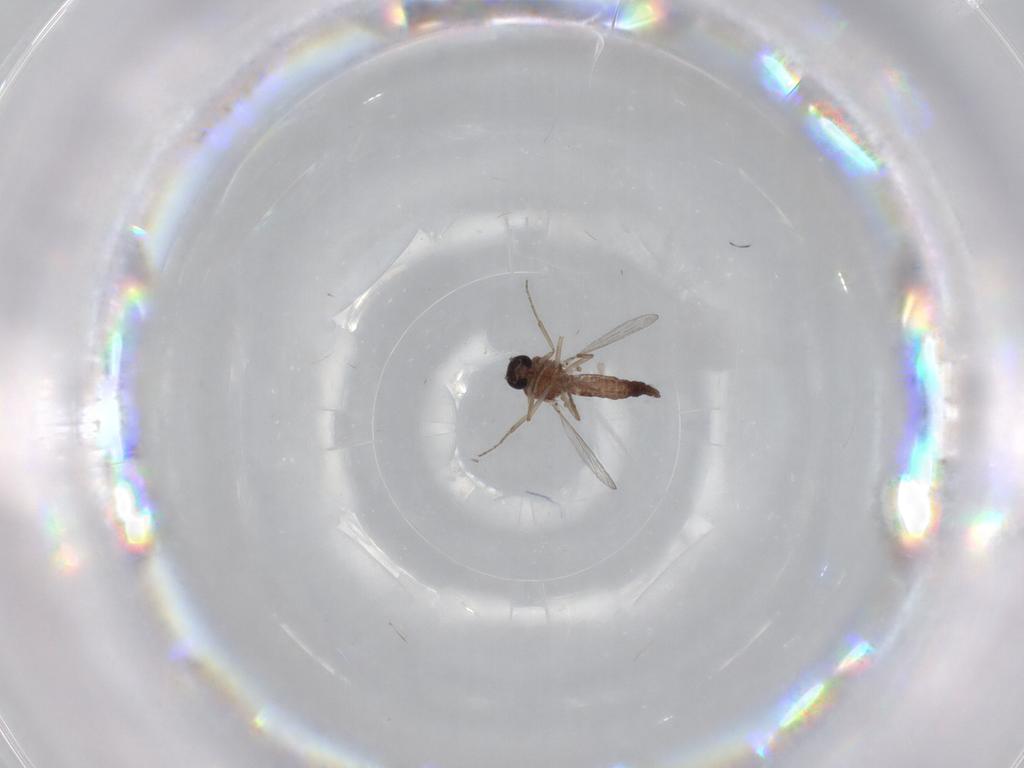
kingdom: Animalia
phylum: Arthropoda
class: Insecta
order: Diptera
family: Ceratopogonidae
